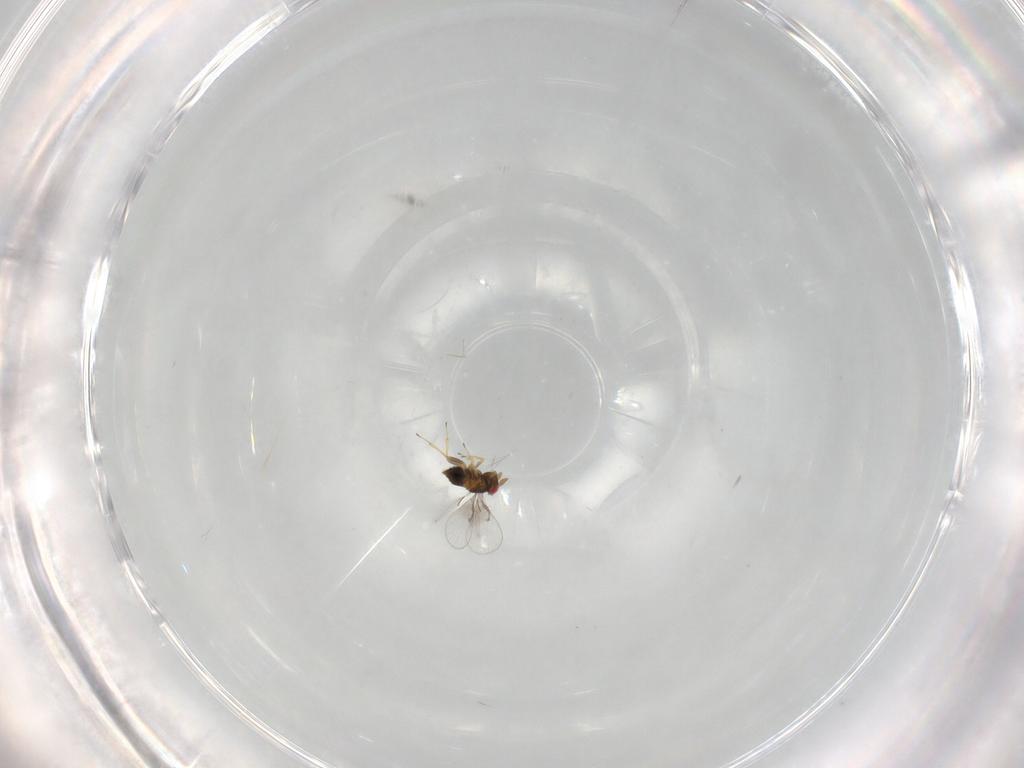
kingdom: Animalia
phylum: Arthropoda
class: Insecta
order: Hymenoptera
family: Trichogrammatidae
